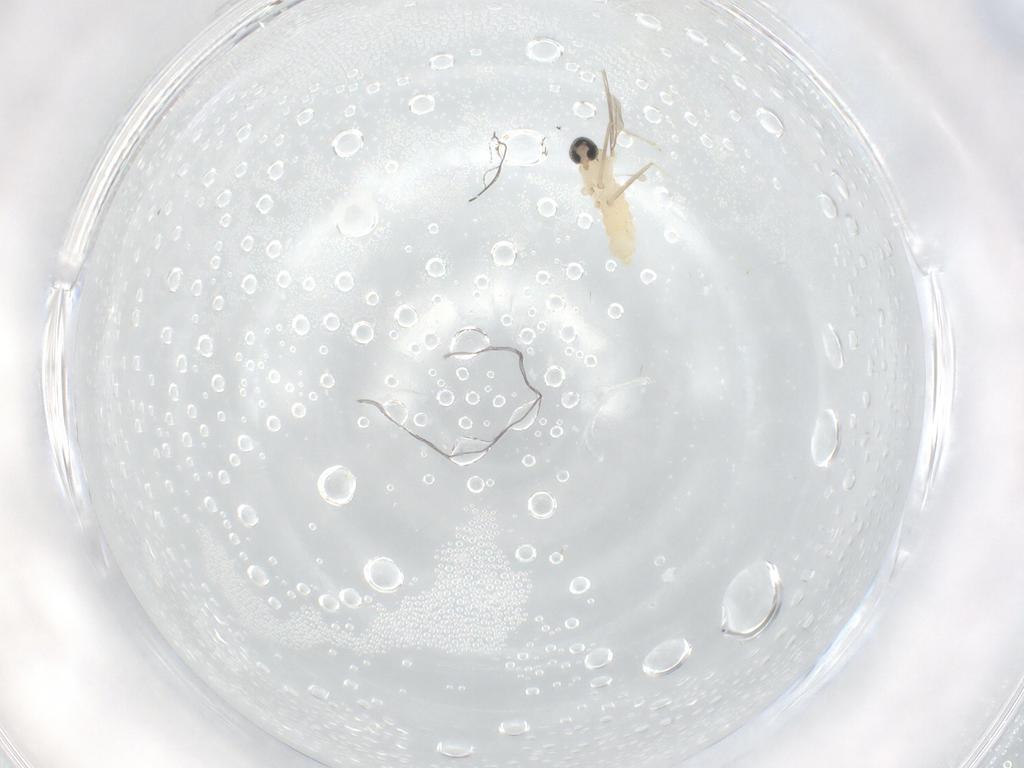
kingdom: Animalia
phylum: Arthropoda
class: Insecta
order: Diptera
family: Cecidomyiidae
